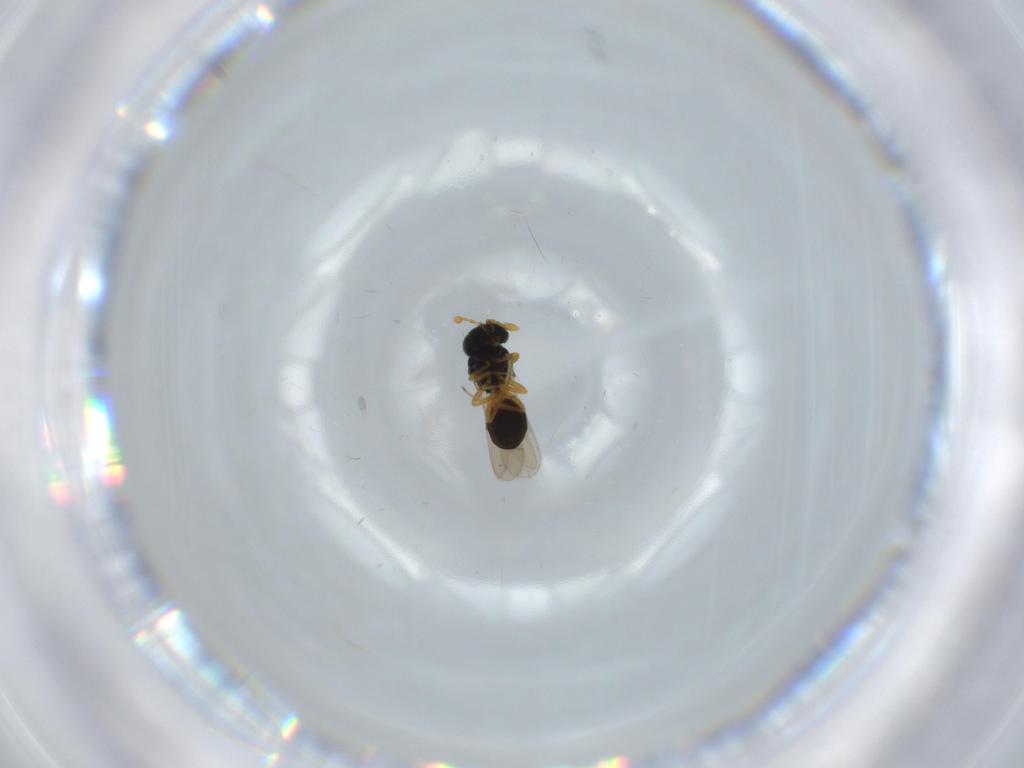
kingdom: Animalia
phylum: Arthropoda
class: Insecta
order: Hymenoptera
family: Scelionidae
